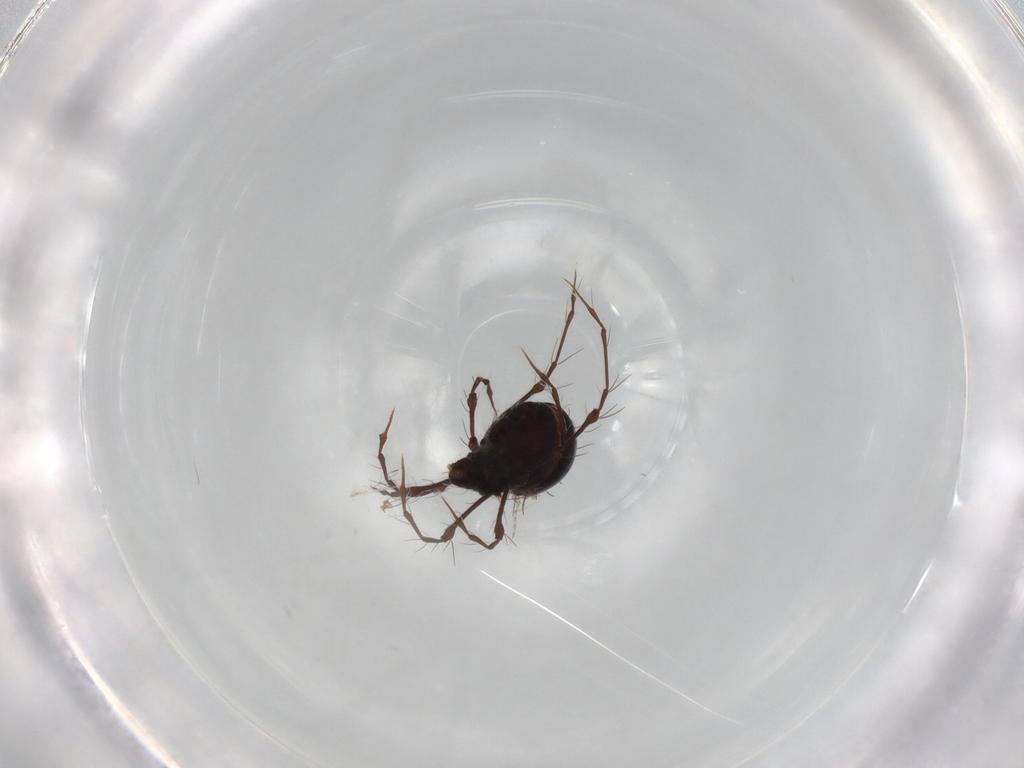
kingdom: Animalia
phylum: Arthropoda
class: Arachnida
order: Sarcoptiformes
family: Damaeidae
